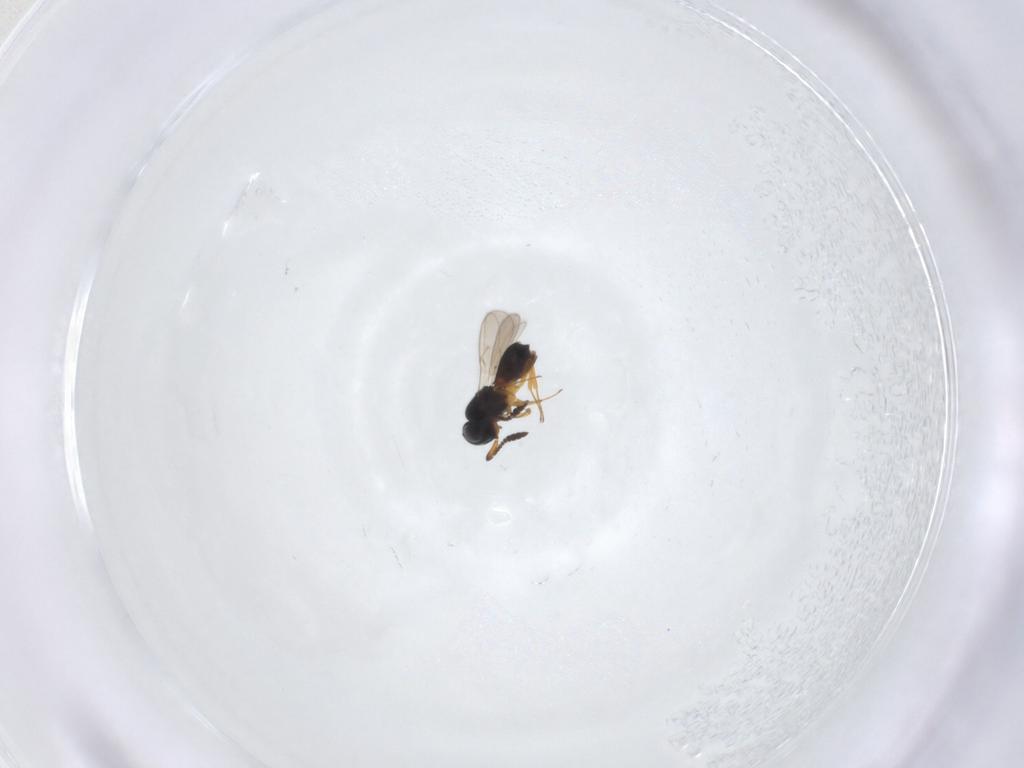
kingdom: Animalia
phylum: Arthropoda
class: Insecta
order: Hymenoptera
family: Scelionidae
